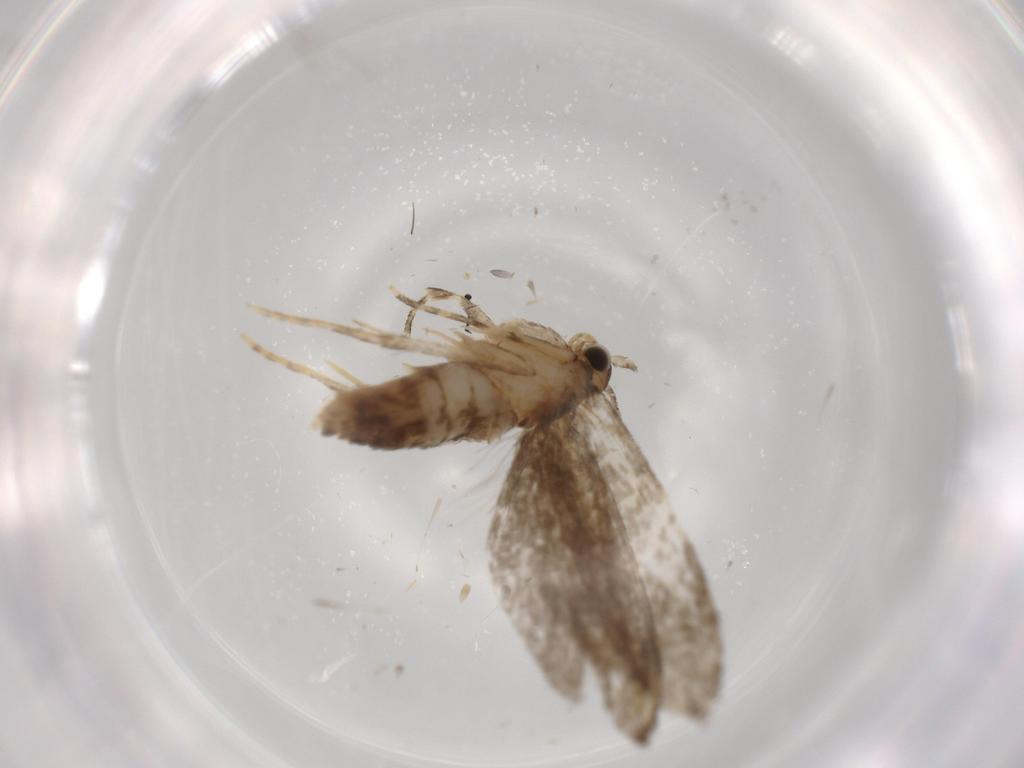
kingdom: Animalia
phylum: Arthropoda
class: Insecta
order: Lepidoptera
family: Tineidae
